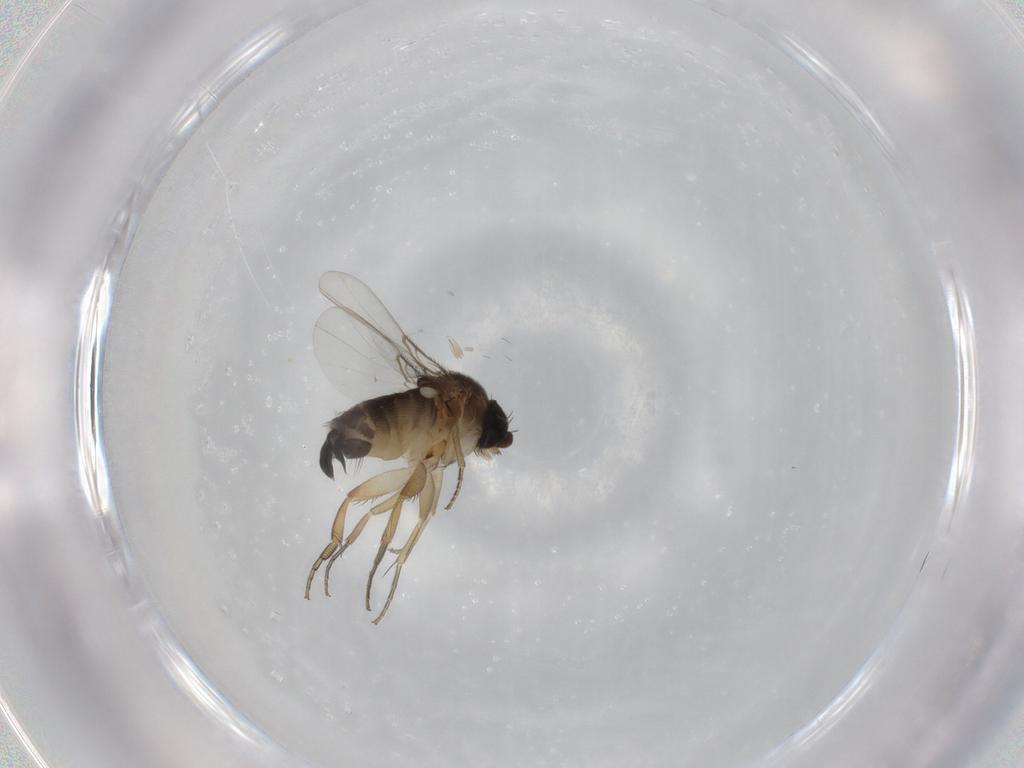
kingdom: Animalia
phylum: Arthropoda
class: Insecta
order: Diptera
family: Phoridae
